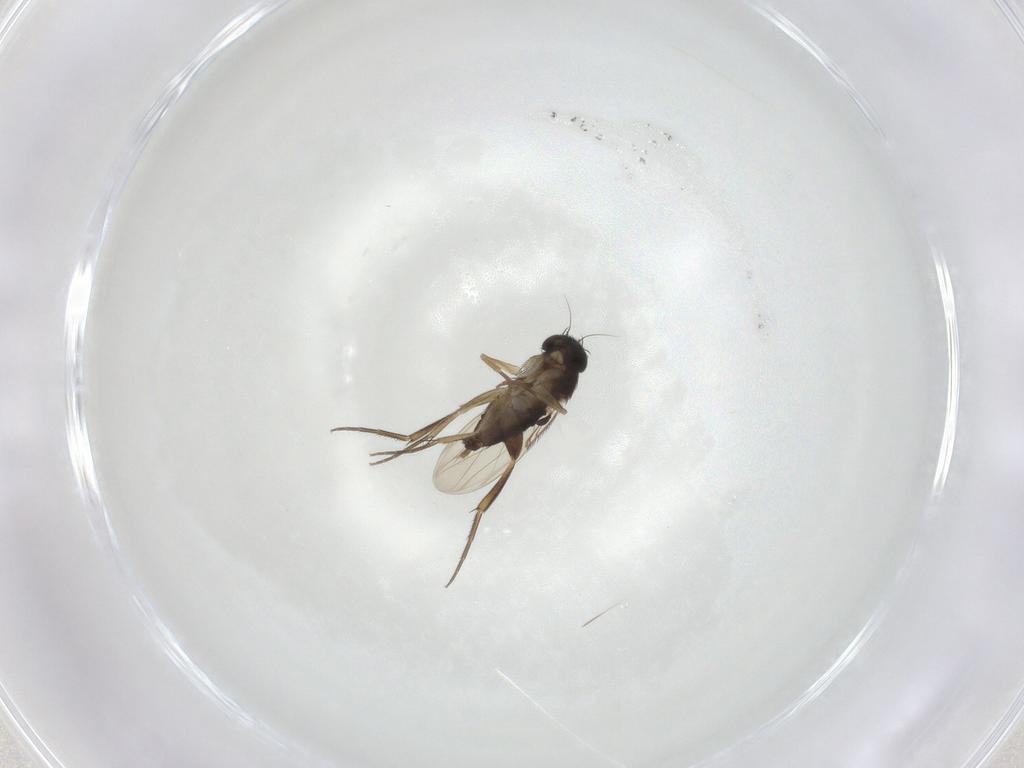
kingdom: Animalia
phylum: Arthropoda
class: Insecta
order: Diptera
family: Phoridae
